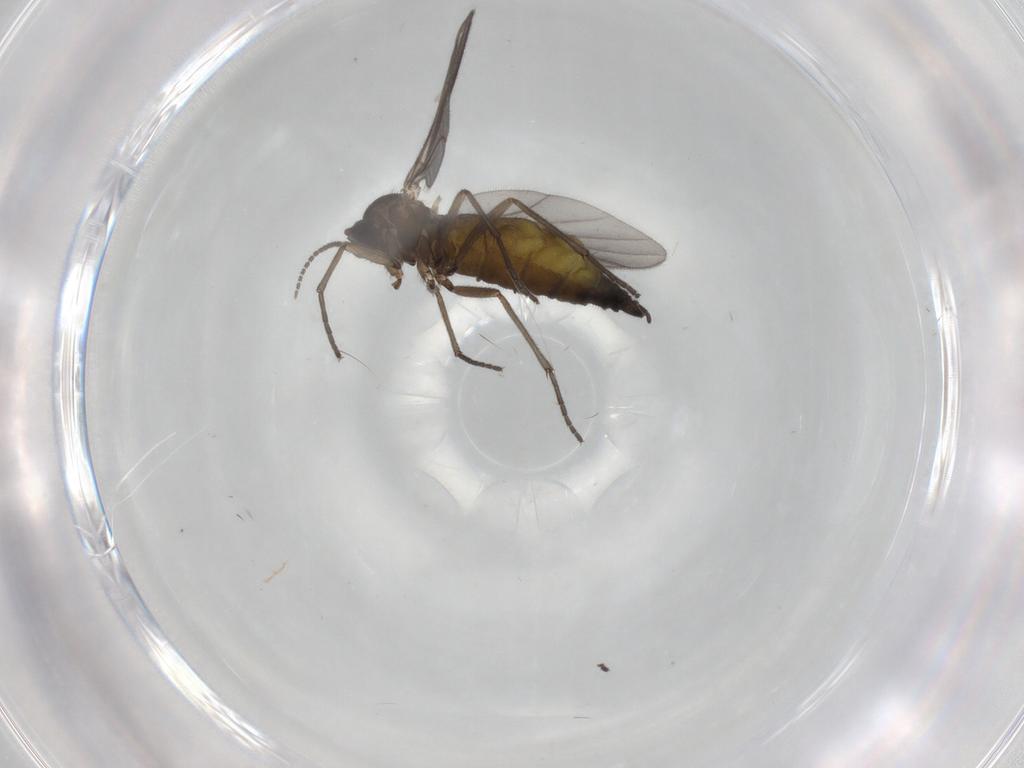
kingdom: Animalia
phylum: Arthropoda
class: Insecta
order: Diptera
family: Sciaridae
